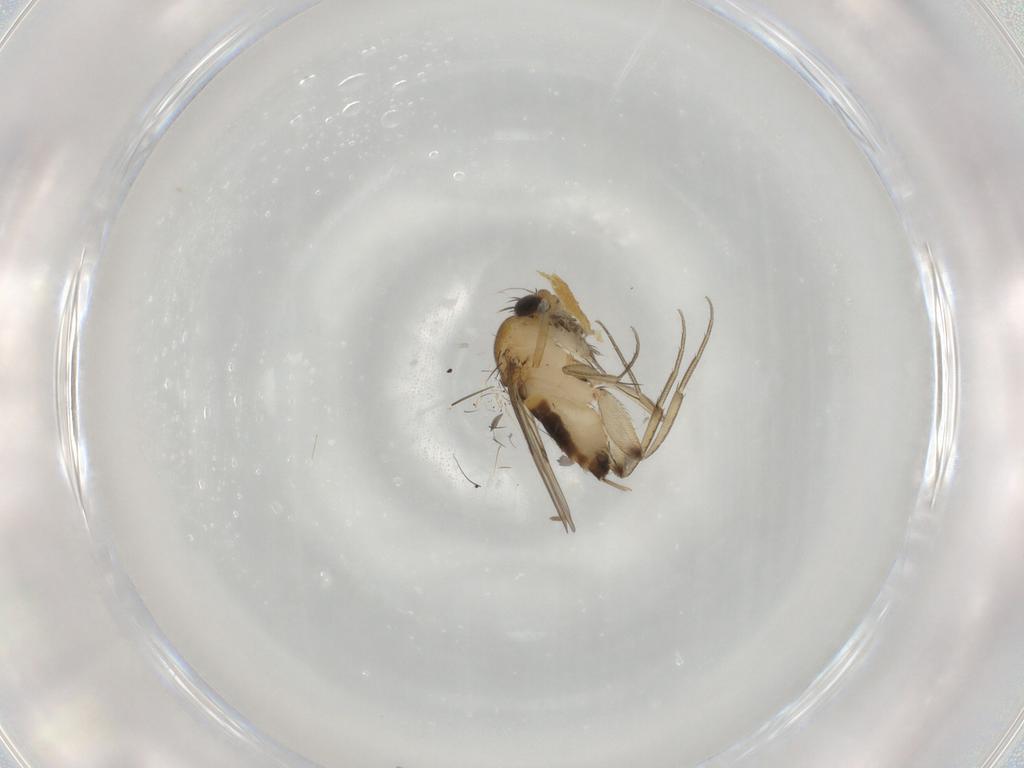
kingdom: Animalia
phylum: Arthropoda
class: Insecta
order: Diptera
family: Phoridae
